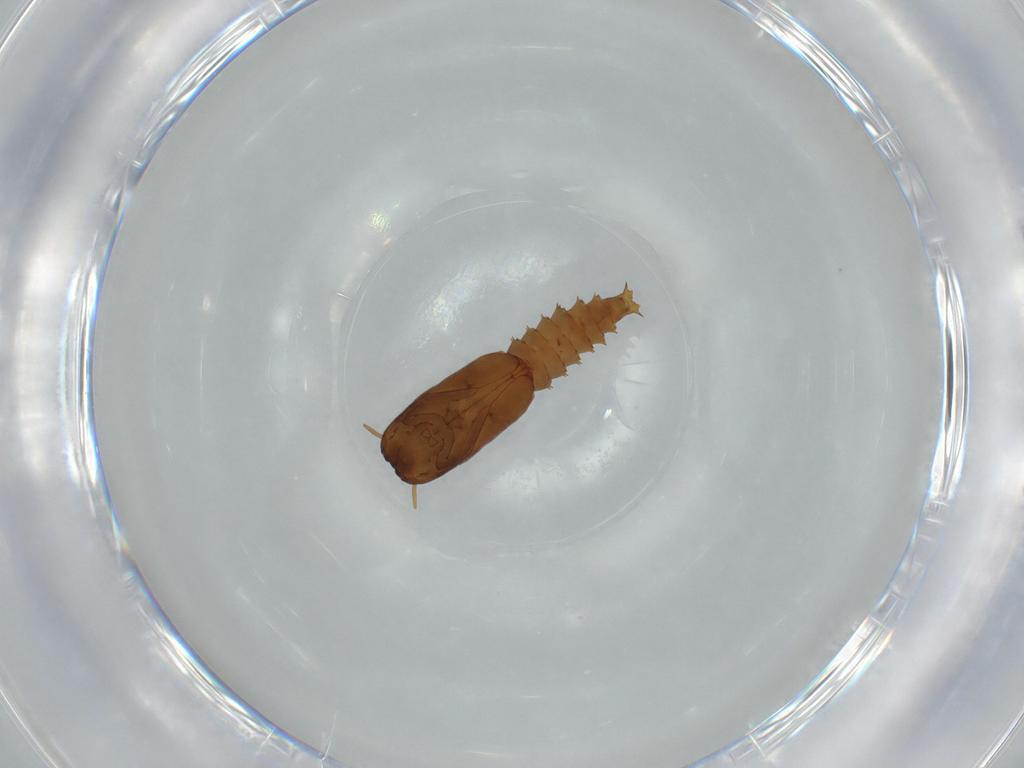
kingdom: Animalia
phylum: Arthropoda
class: Insecta
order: Diptera
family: Ceratopogonidae
